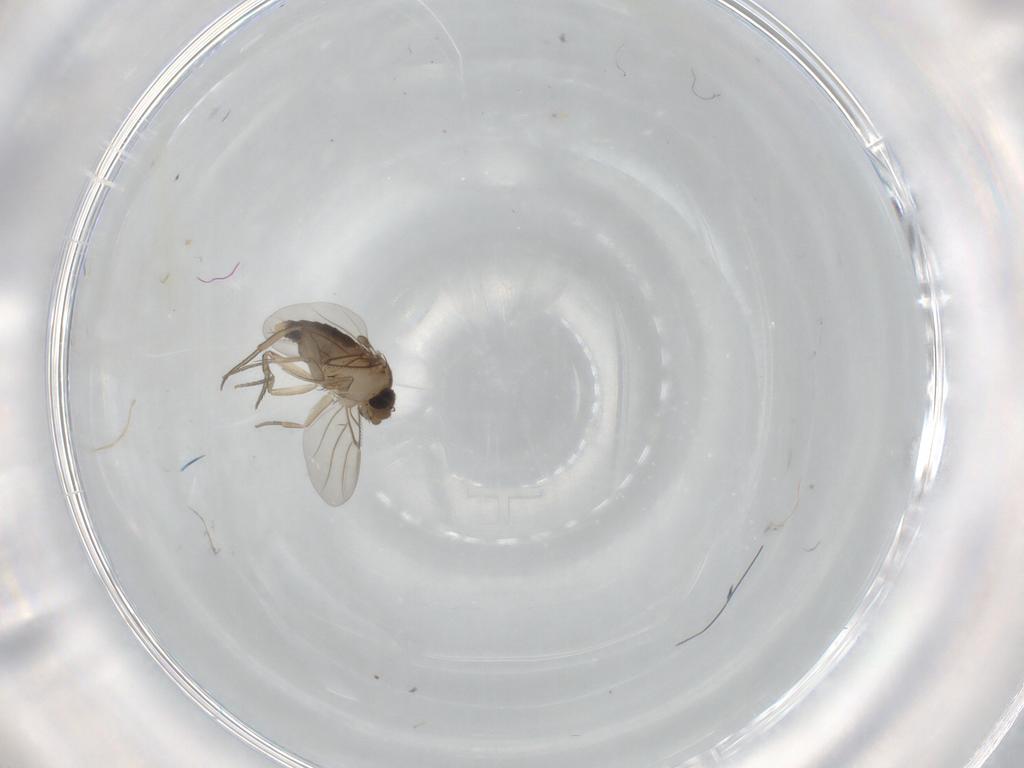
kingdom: Animalia
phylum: Arthropoda
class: Insecta
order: Diptera
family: Phoridae
